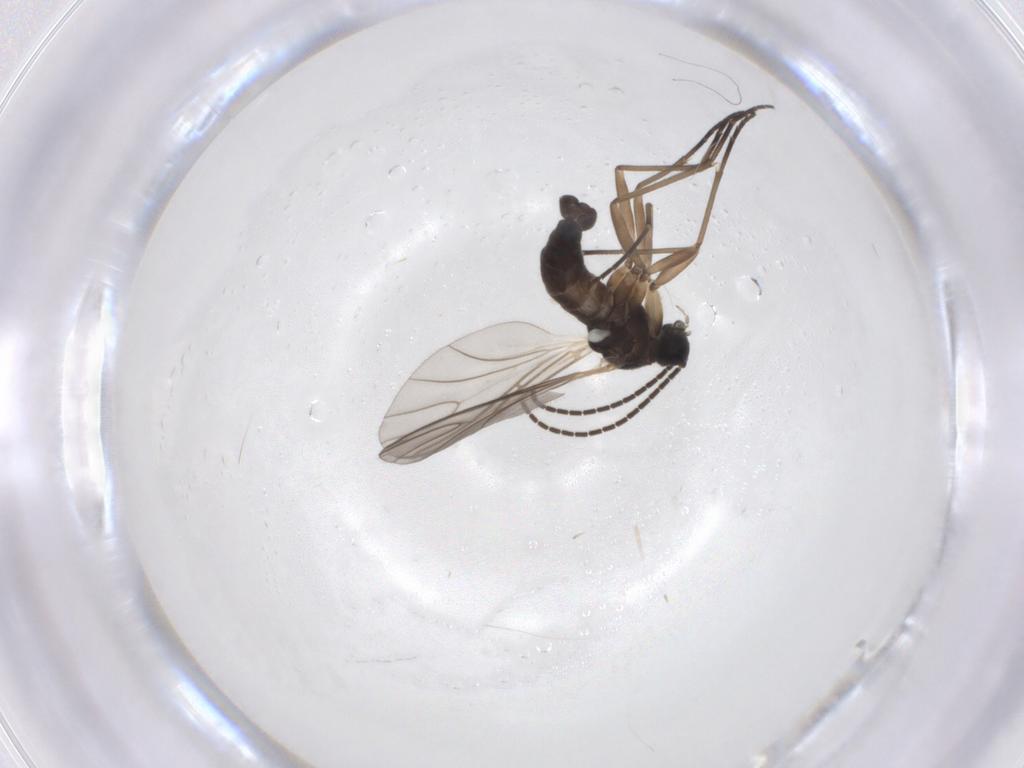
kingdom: Animalia
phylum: Arthropoda
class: Insecta
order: Diptera
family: Sciaridae
